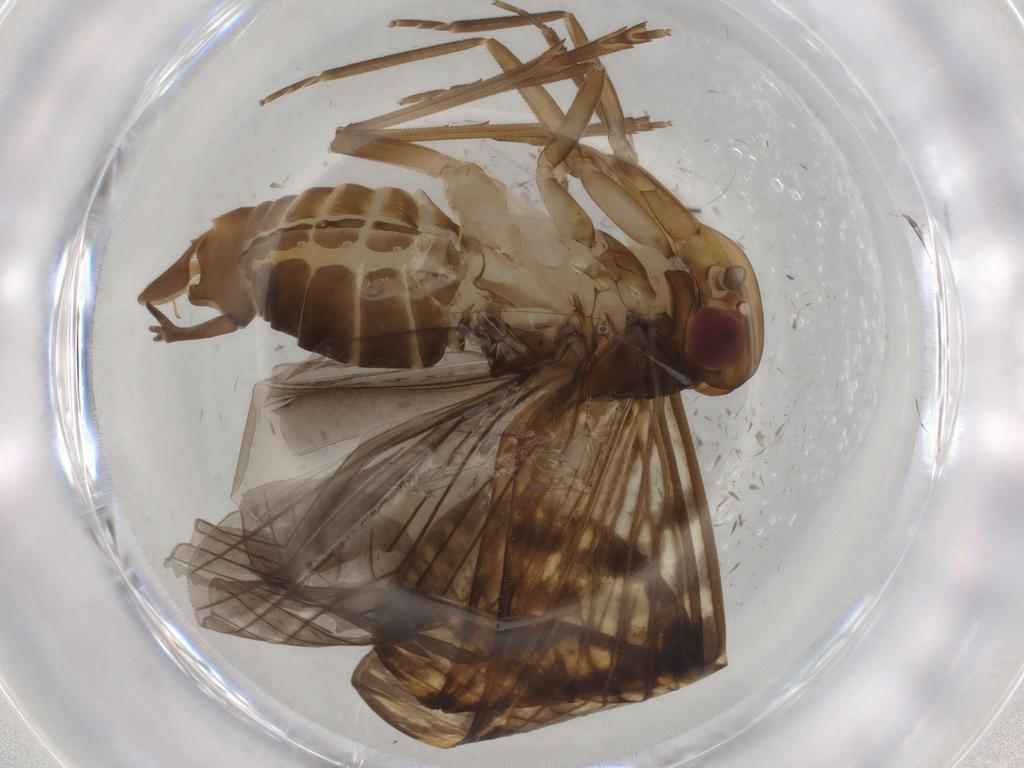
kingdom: Animalia
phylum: Arthropoda
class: Insecta
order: Diptera
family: Sciaridae
